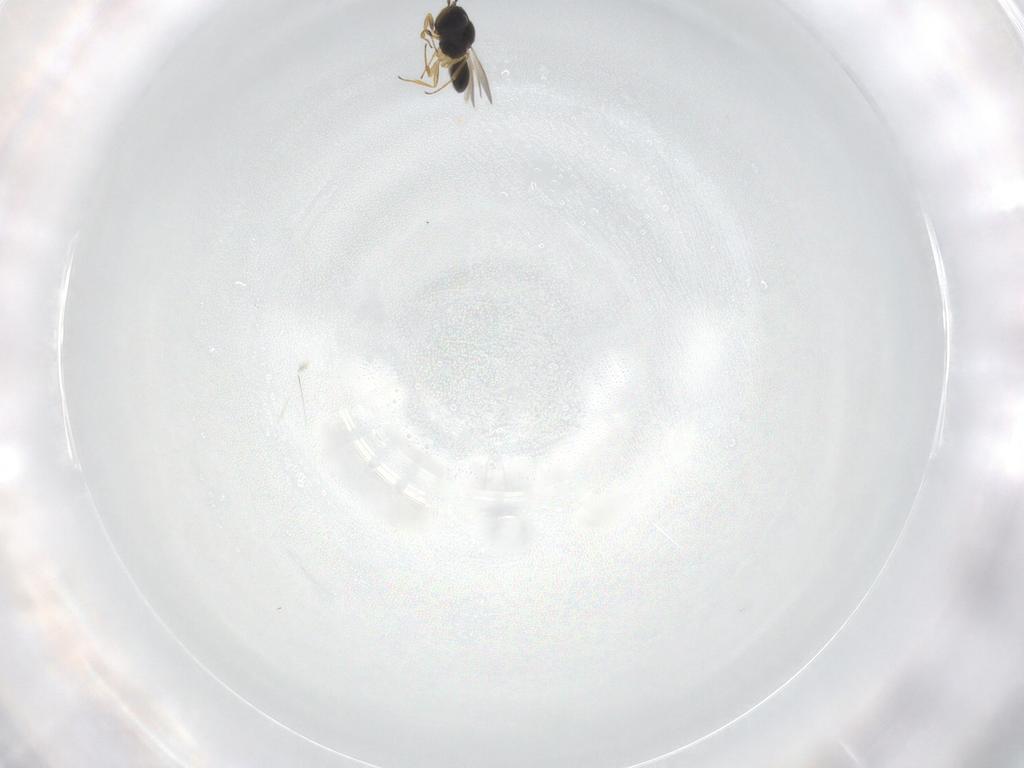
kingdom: Animalia
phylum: Arthropoda
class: Insecta
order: Hymenoptera
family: Scelionidae
